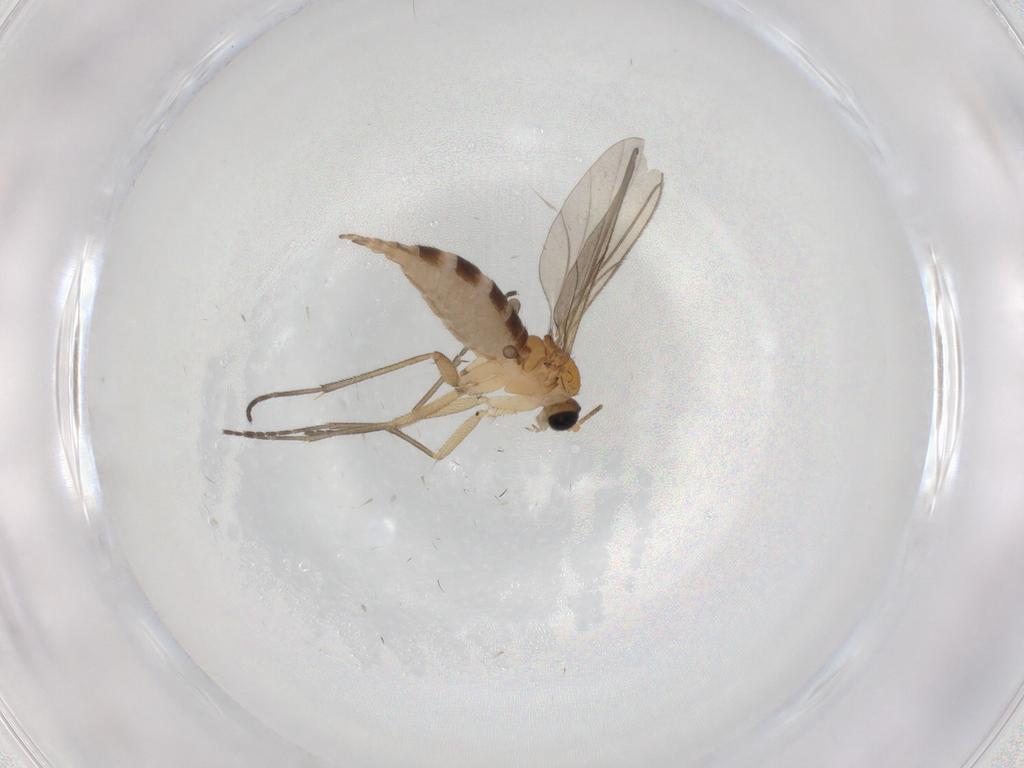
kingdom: Animalia
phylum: Arthropoda
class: Insecta
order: Diptera
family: Sciaridae
